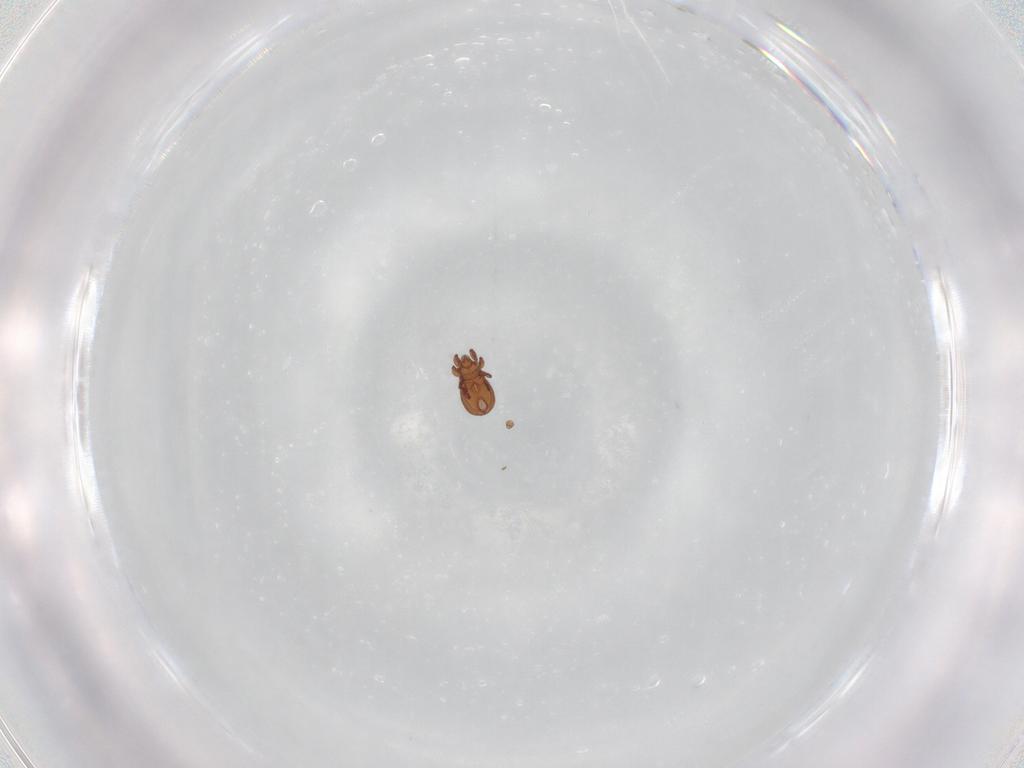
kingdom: Animalia
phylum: Arthropoda
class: Arachnida
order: Sarcoptiformes
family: Eremaeidae
